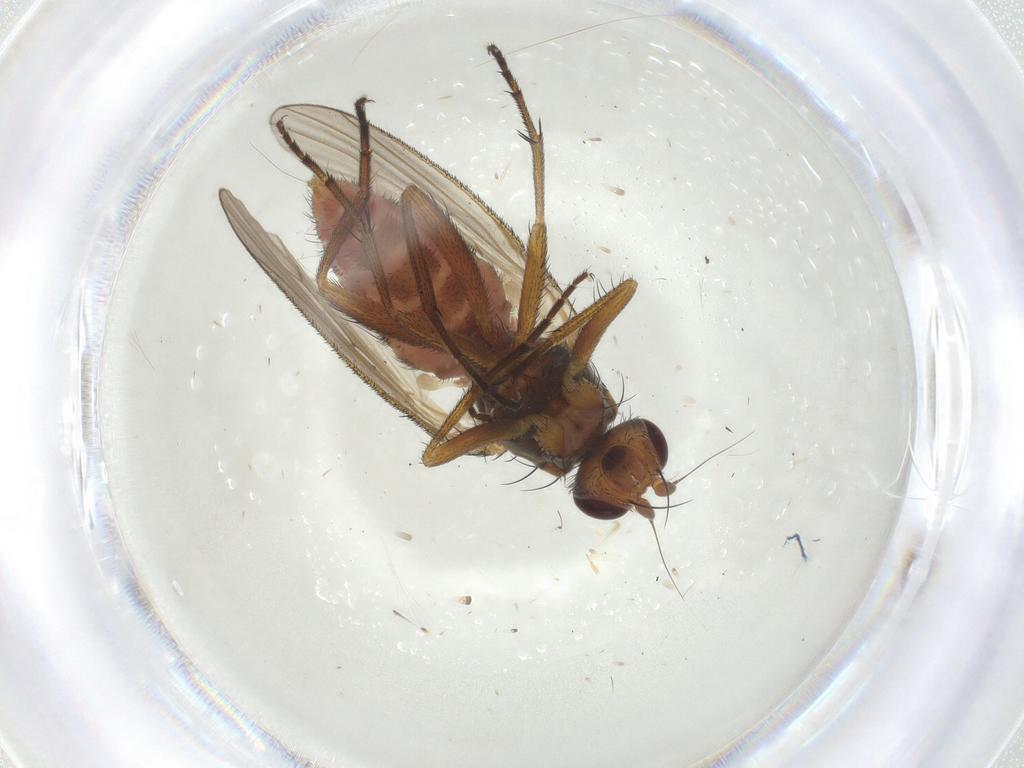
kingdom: Animalia
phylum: Arthropoda
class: Insecta
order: Diptera
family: Heleomyzidae
